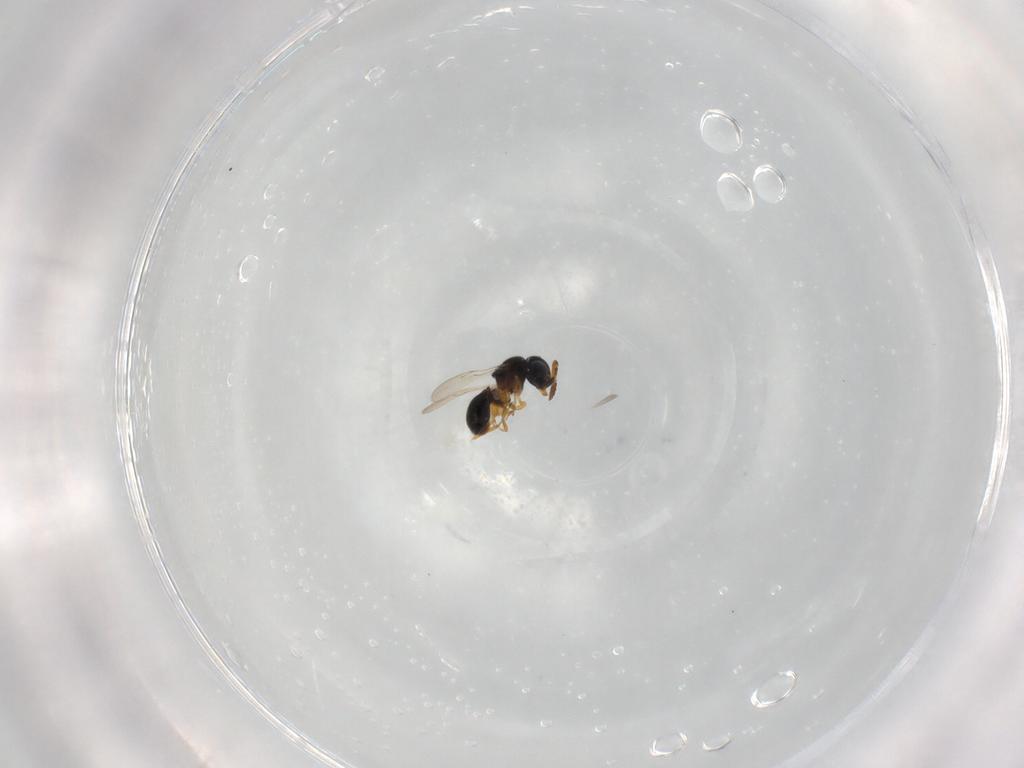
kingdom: Animalia
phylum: Arthropoda
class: Insecta
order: Hymenoptera
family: Scelionidae
